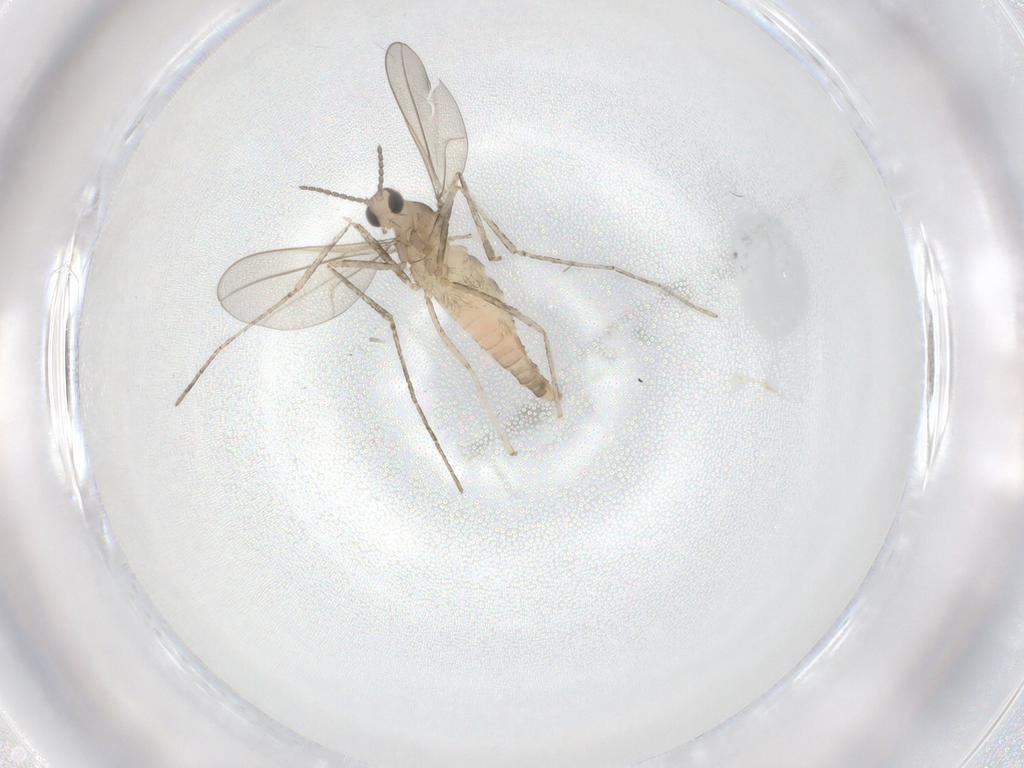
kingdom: Animalia
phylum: Arthropoda
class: Insecta
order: Diptera
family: Cecidomyiidae
